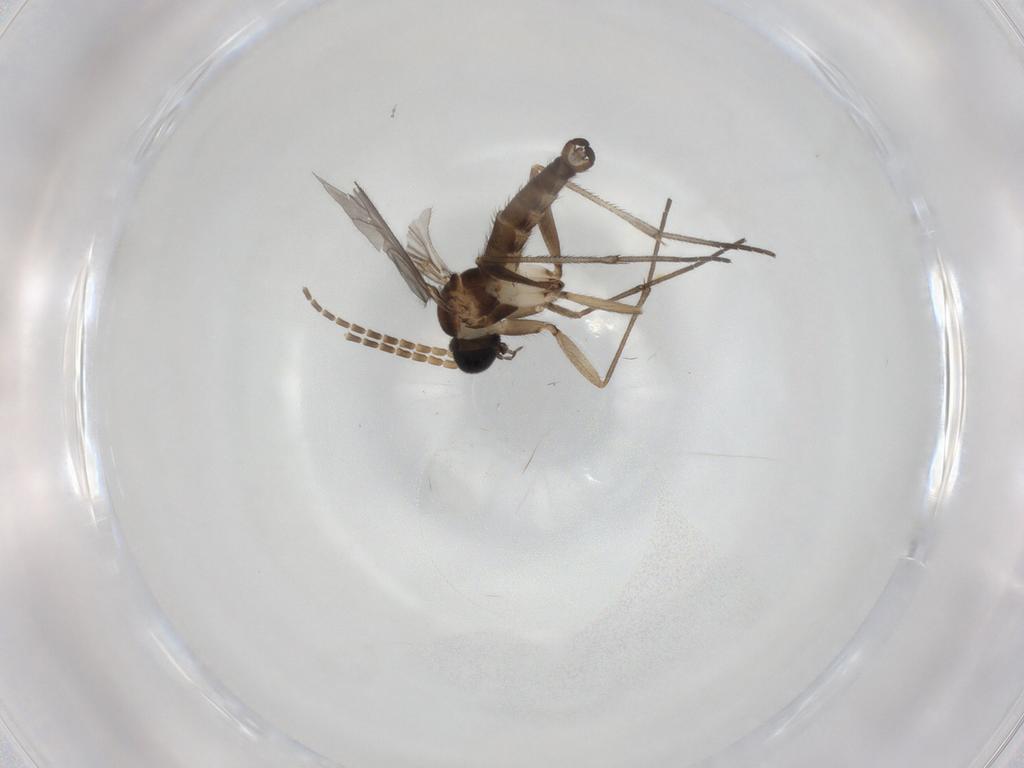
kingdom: Animalia
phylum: Arthropoda
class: Insecta
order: Diptera
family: Sciaridae
